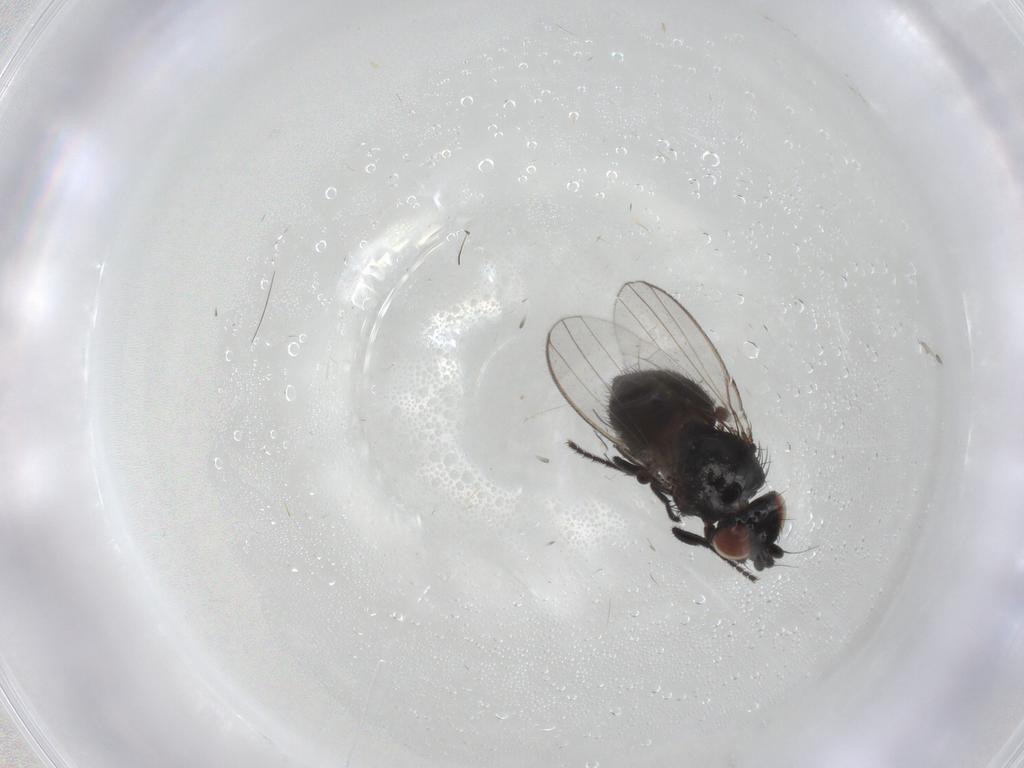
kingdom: Animalia
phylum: Arthropoda
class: Insecta
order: Diptera
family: Milichiidae
